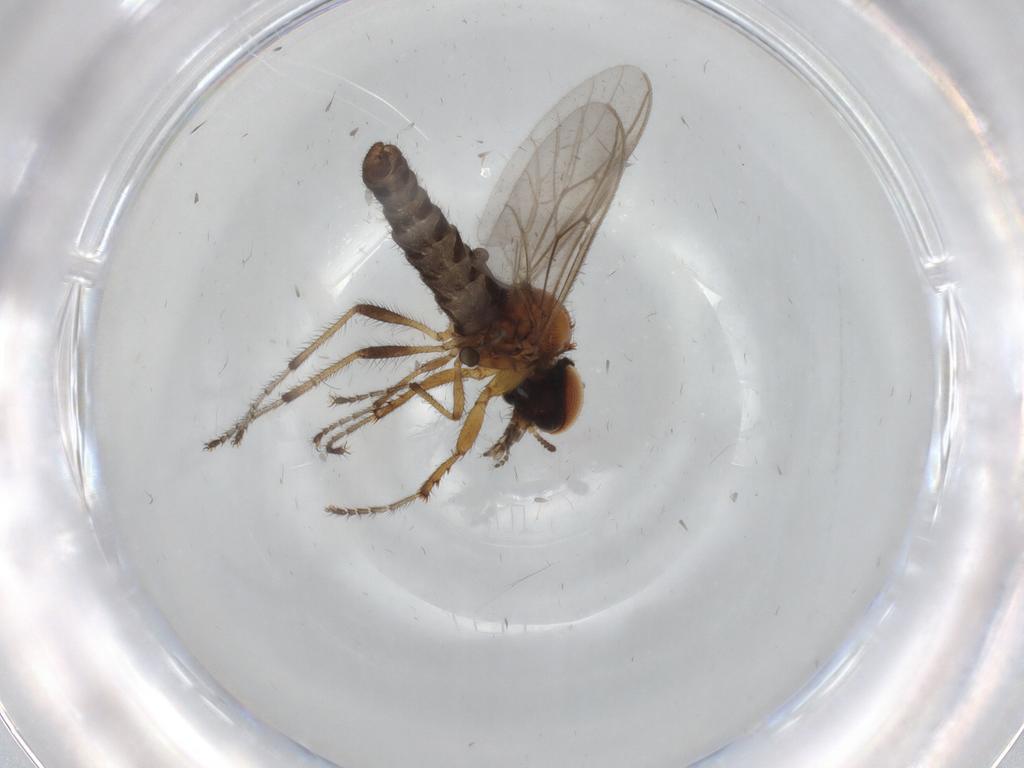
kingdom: Animalia
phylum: Arthropoda
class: Insecta
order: Diptera
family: Bibionidae
